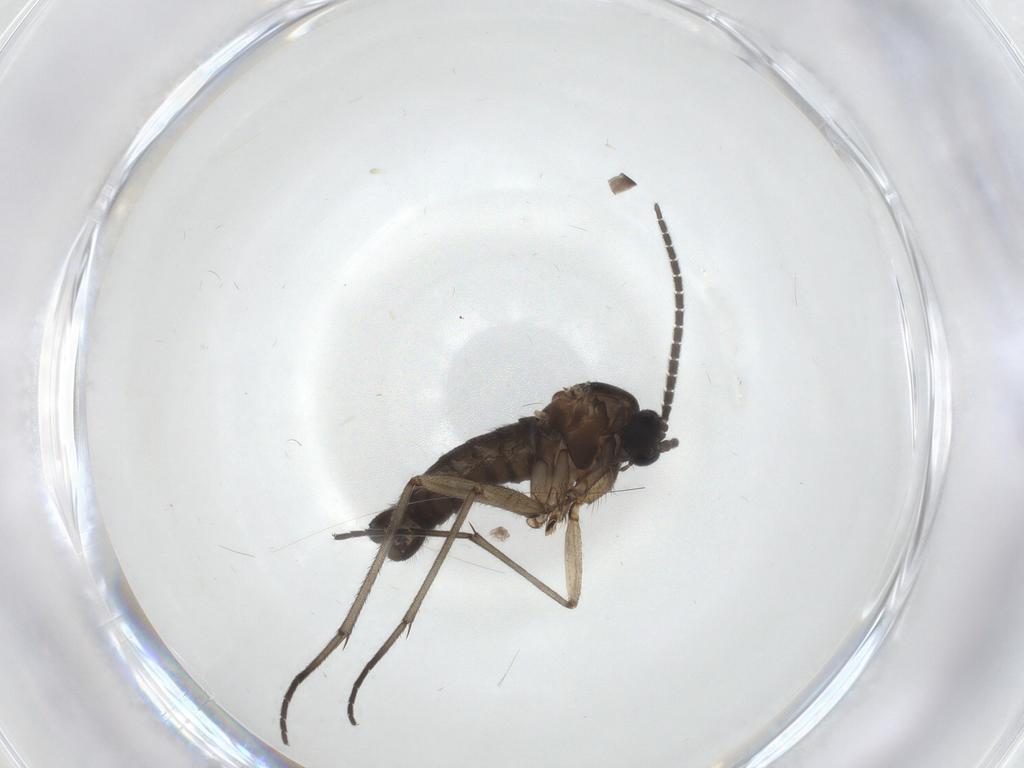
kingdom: Animalia
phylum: Arthropoda
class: Insecta
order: Diptera
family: Sciaridae
